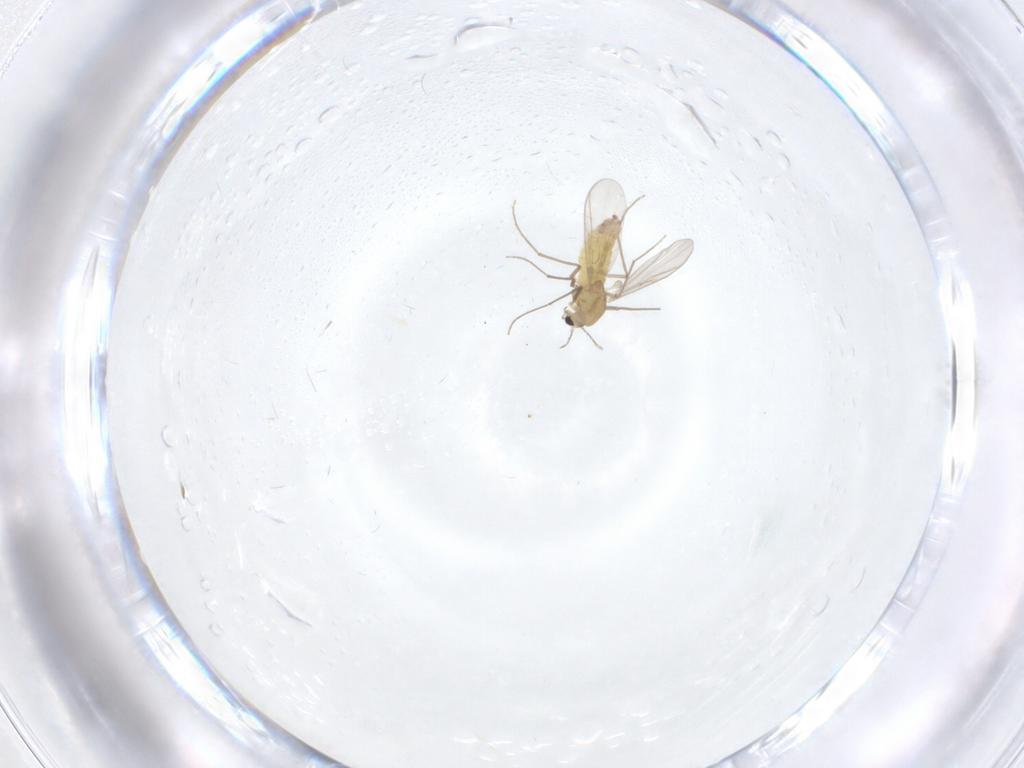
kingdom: Animalia
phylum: Arthropoda
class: Insecta
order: Diptera
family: Chironomidae
